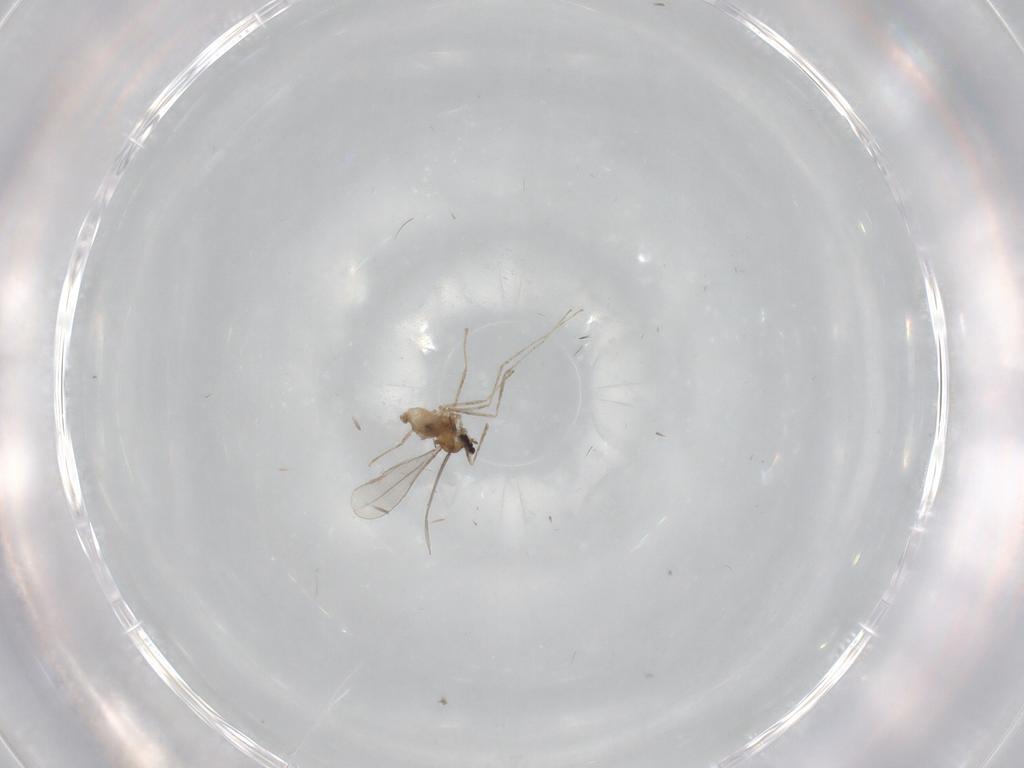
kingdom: Animalia
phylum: Arthropoda
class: Insecta
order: Diptera
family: Cecidomyiidae
